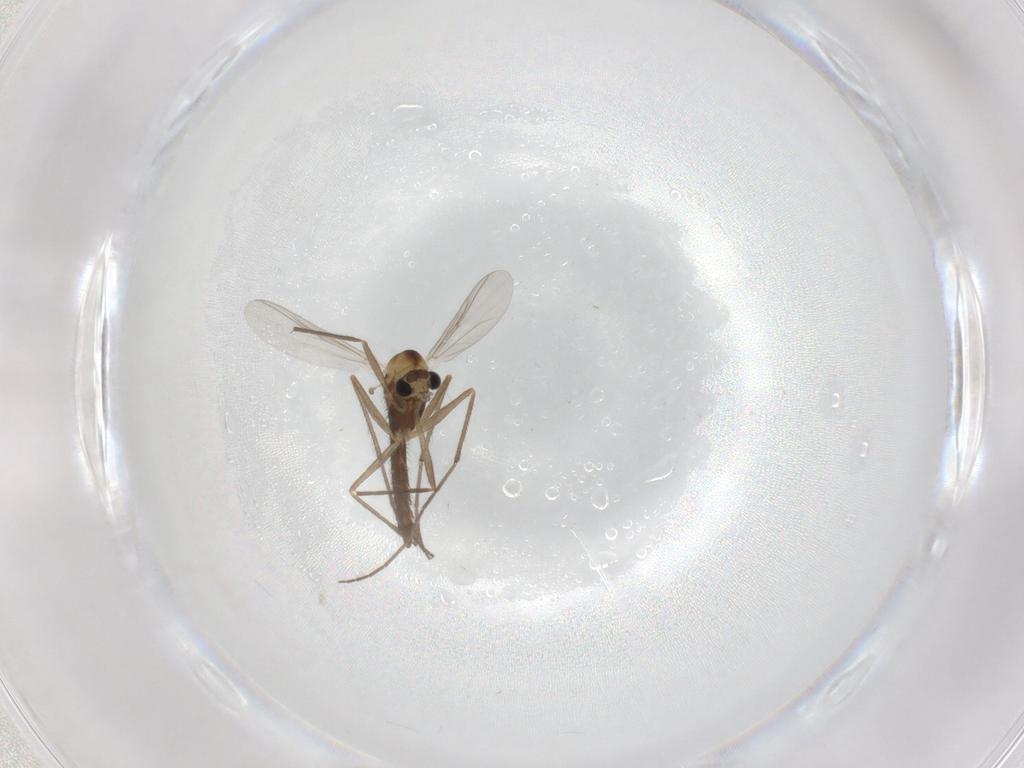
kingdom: Animalia
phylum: Arthropoda
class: Insecta
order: Diptera
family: Chironomidae
